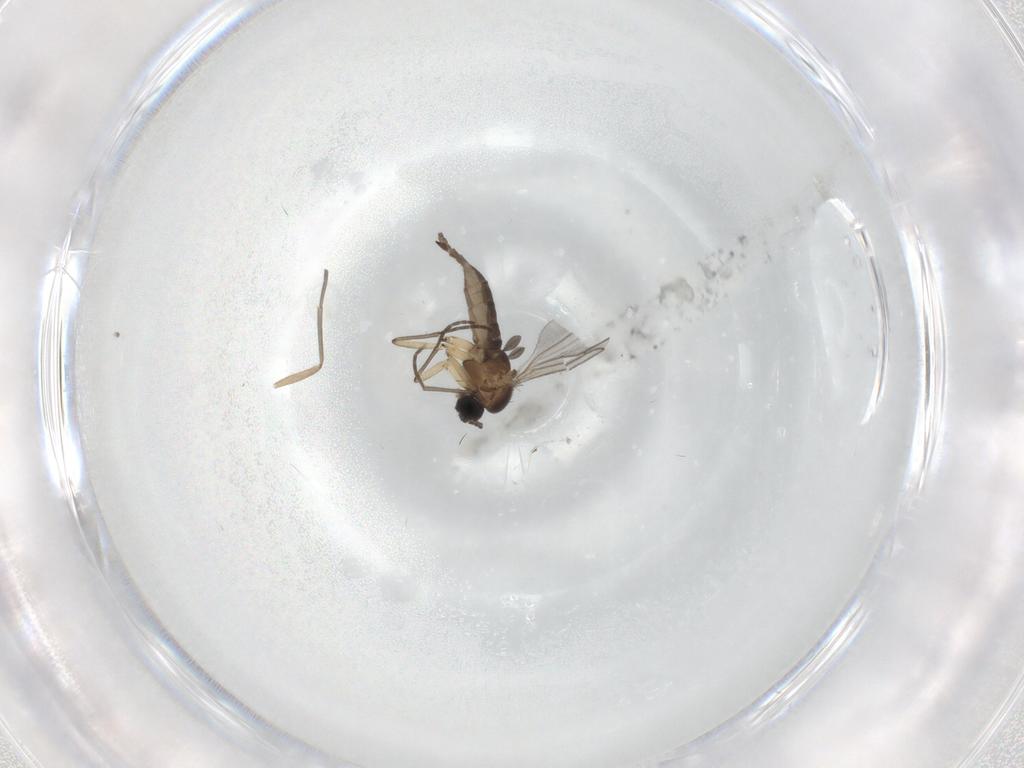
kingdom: Animalia
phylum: Arthropoda
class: Insecta
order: Diptera
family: Sciaridae
